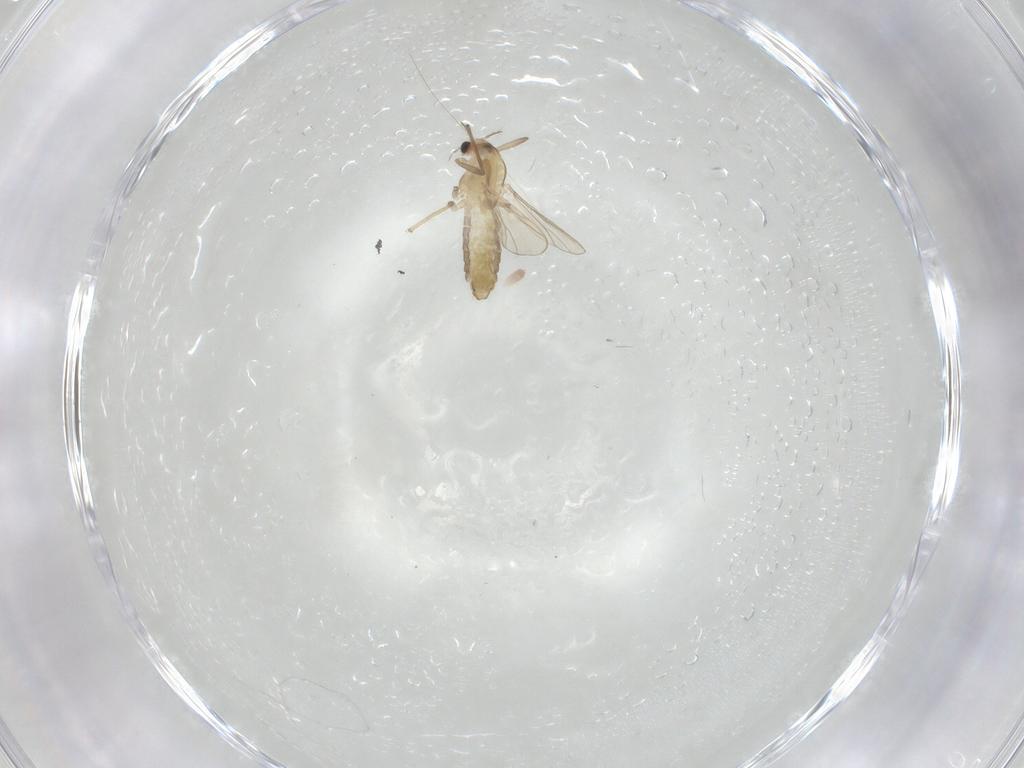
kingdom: Animalia
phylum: Arthropoda
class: Insecta
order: Diptera
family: Chironomidae
